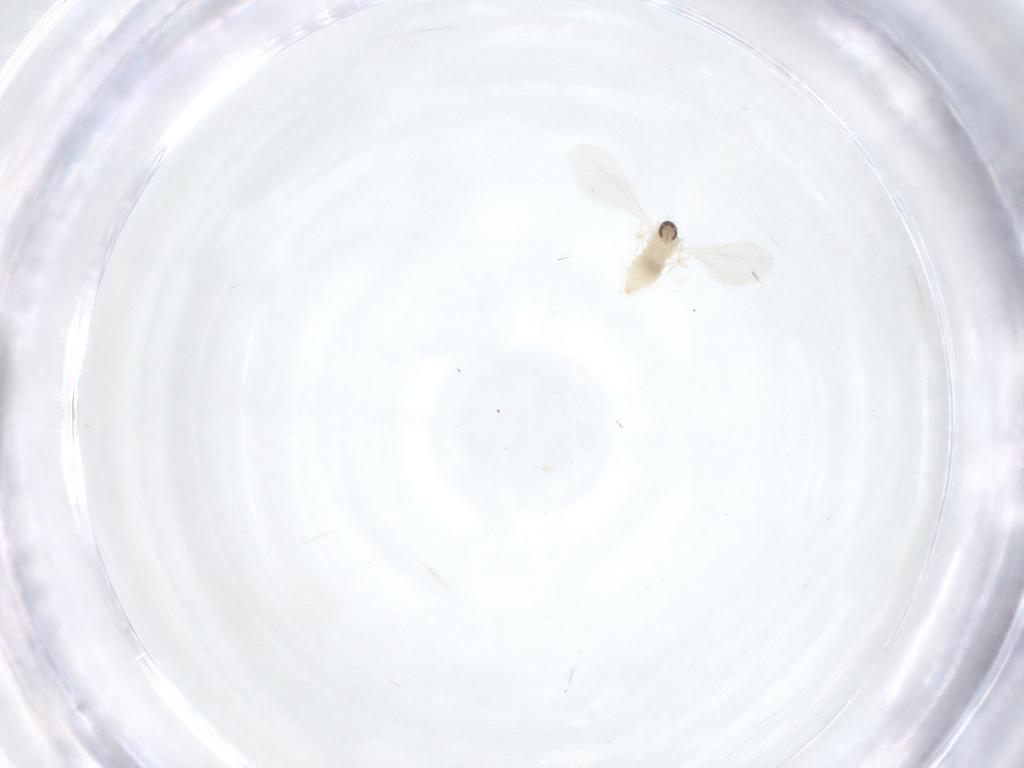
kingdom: Animalia
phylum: Arthropoda
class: Insecta
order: Diptera
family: Cecidomyiidae
